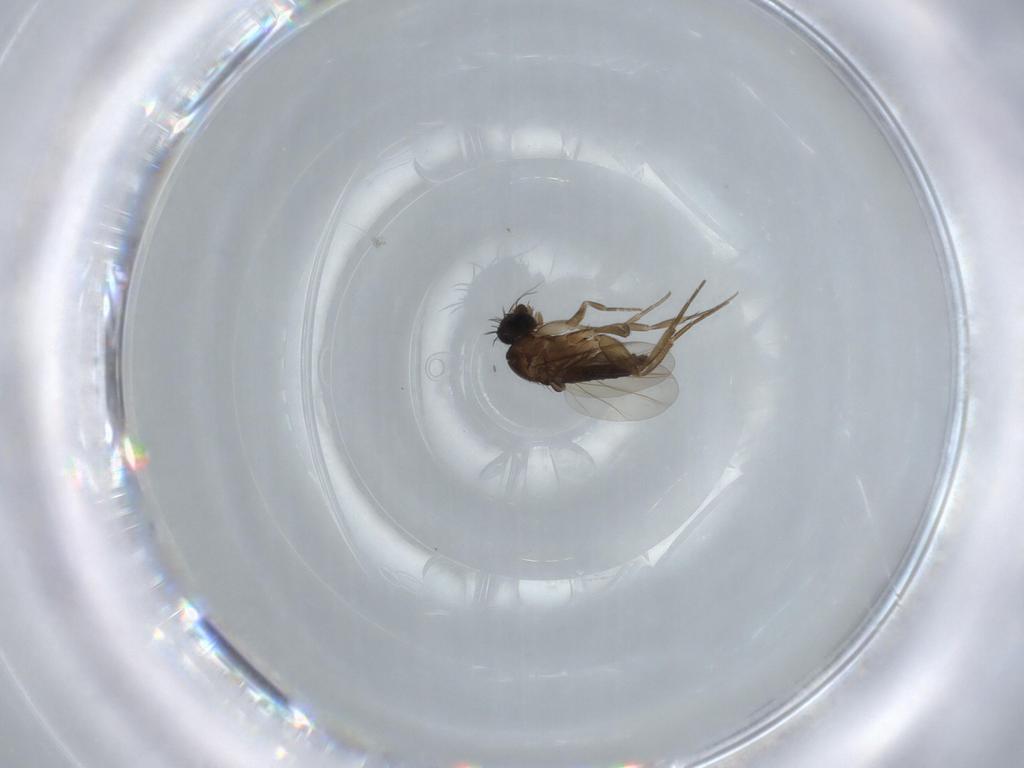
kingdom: Animalia
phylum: Arthropoda
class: Insecta
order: Diptera
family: Phoridae
